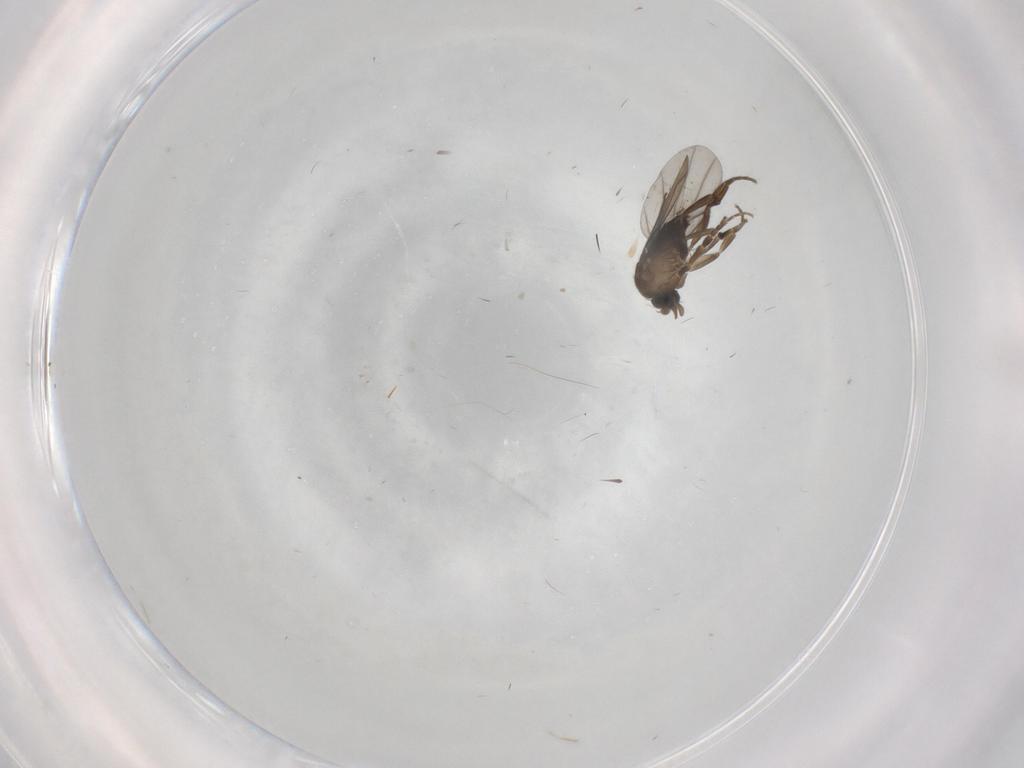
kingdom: Animalia
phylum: Arthropoda
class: Insecta
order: Diptera
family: Phoridae
